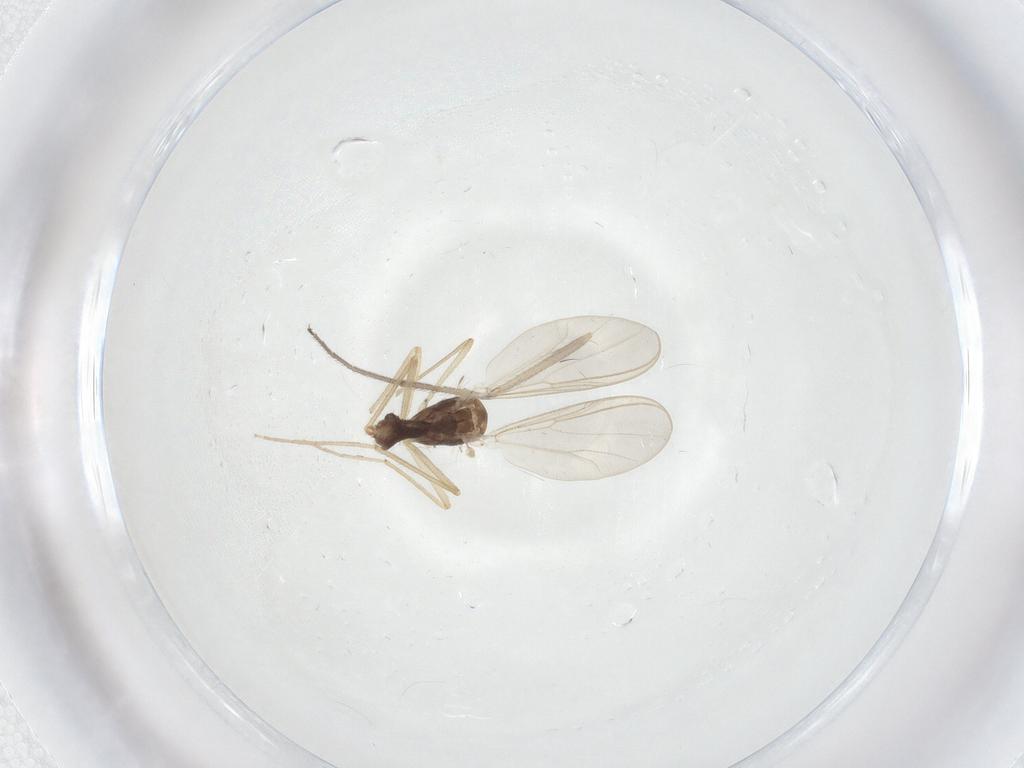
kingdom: Animalia
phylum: Arthropoda
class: Insecta
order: Diptera
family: Chironomidae
